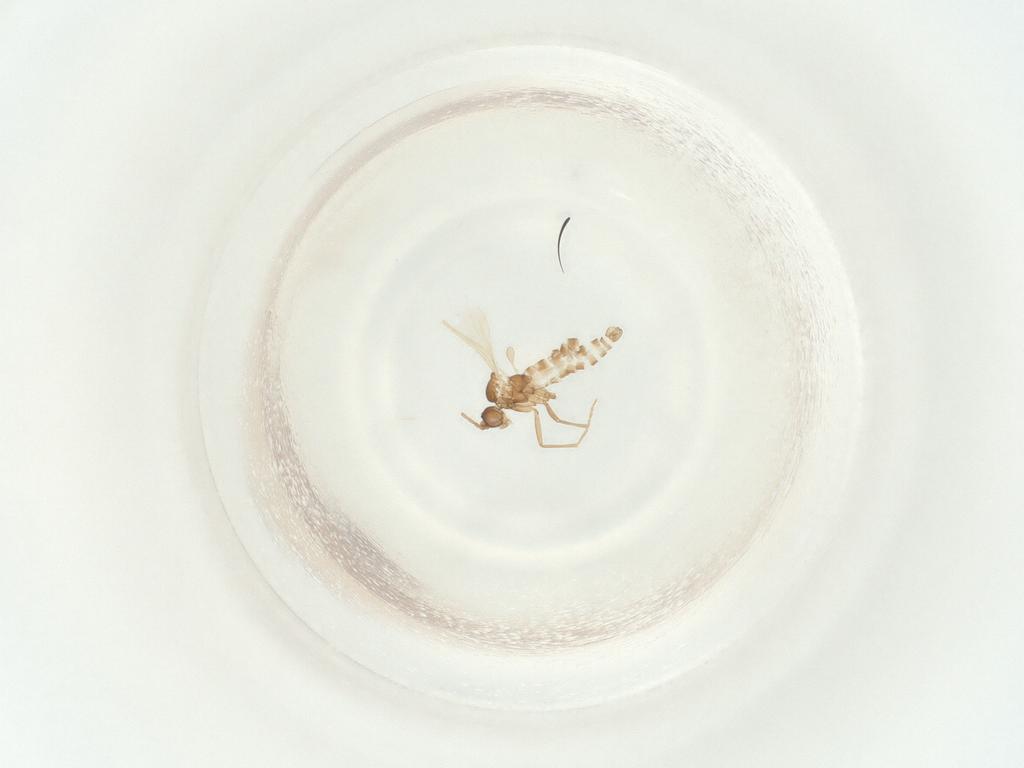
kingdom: Animalia
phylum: Arthropoda
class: Insecta
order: Diptera
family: Sciaridae
